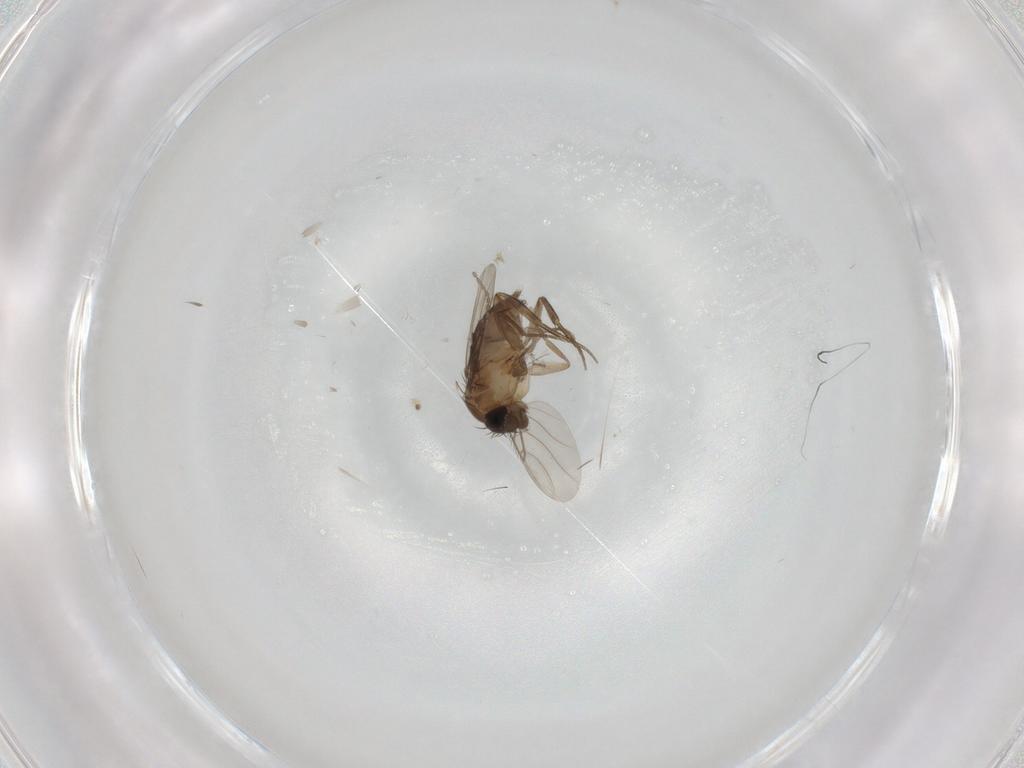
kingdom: Animalia
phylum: Arthropoda
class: Insecta
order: Diptera
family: Phoridae
